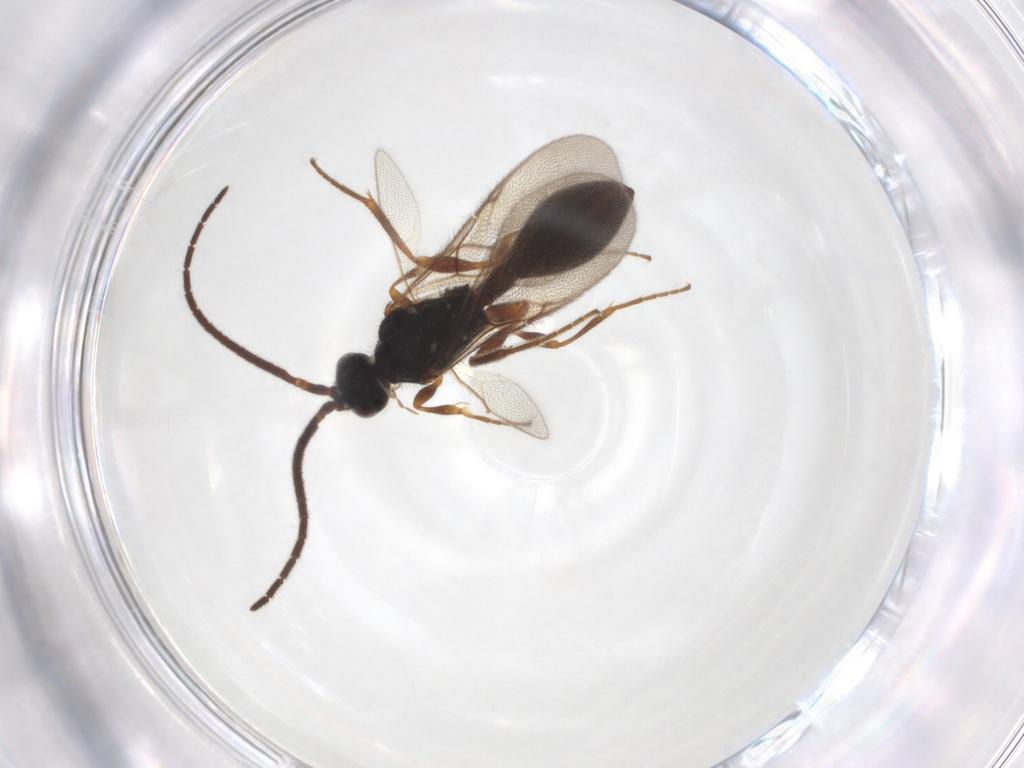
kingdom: Animalia
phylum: Arthropoda
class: Insecta
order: Hymenoptera
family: Diapriidae
